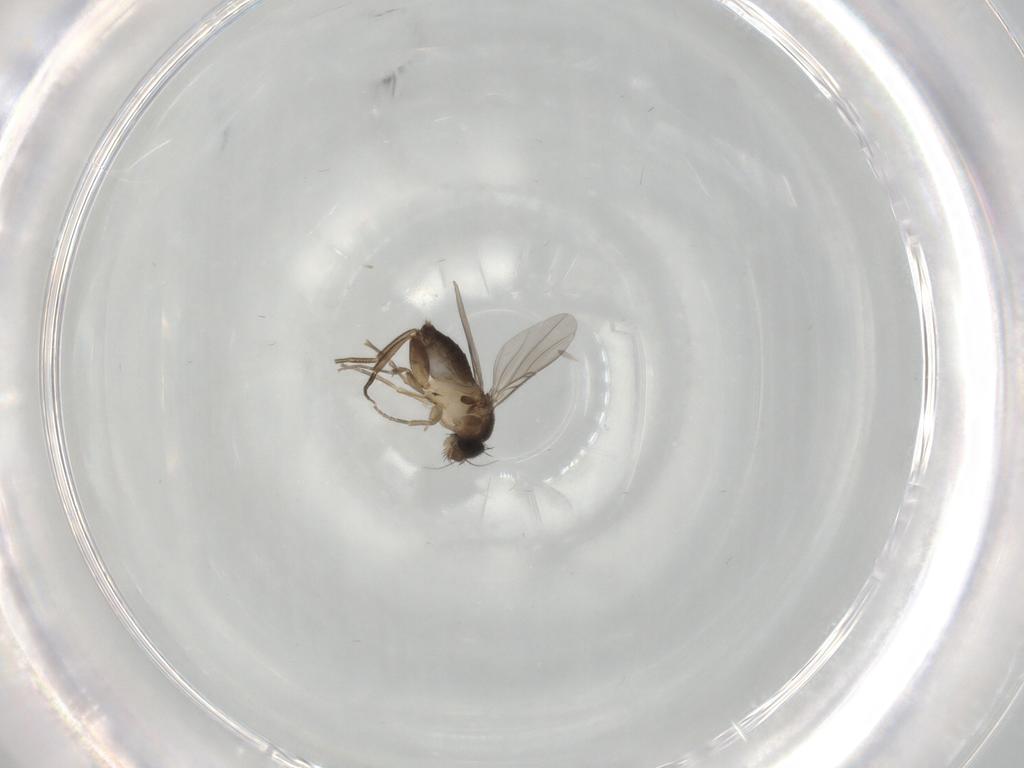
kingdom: Animalia
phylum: Arthropoda
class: Insecta
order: Diptera
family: Phoridae
